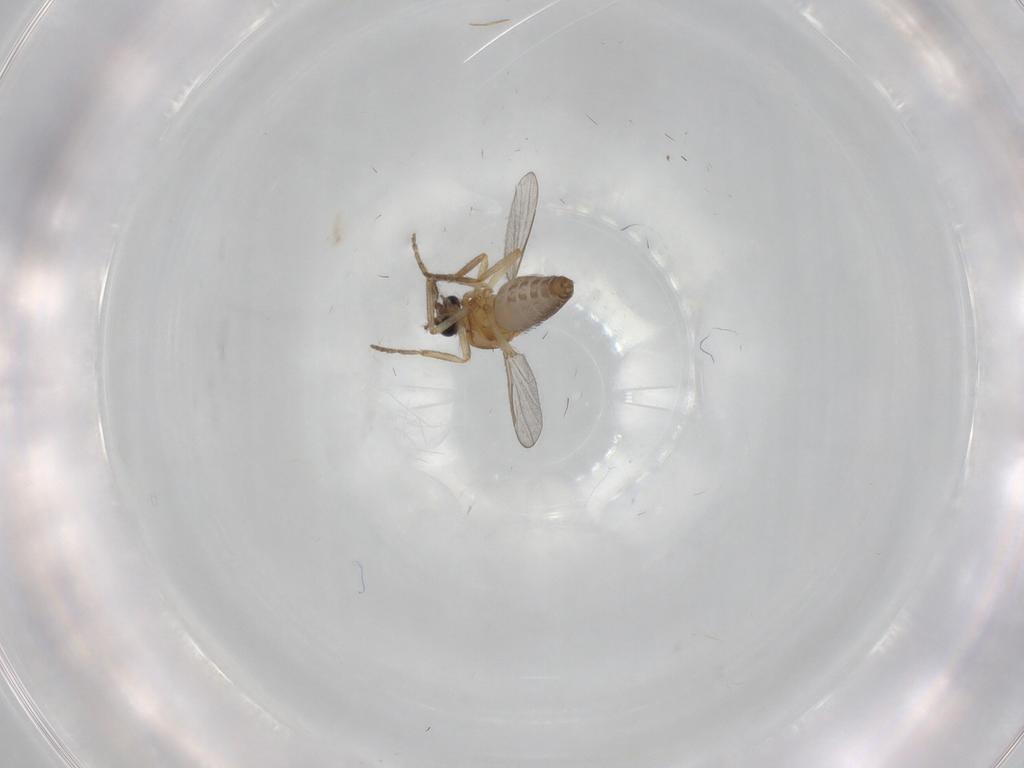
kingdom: Animalia
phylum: Arthropoda
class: Insecta
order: Diptera
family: Ceratopogonidae
